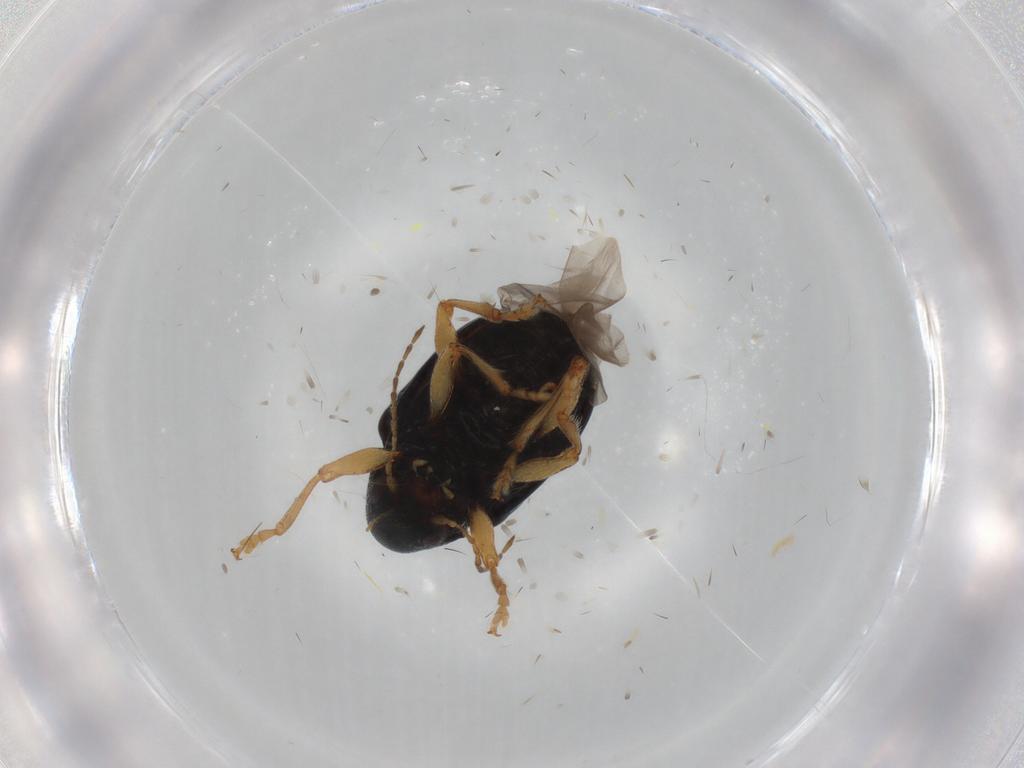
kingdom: Animalia
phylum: Arthropoda
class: Insecta
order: Coleoptera
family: Chrysomelidae
